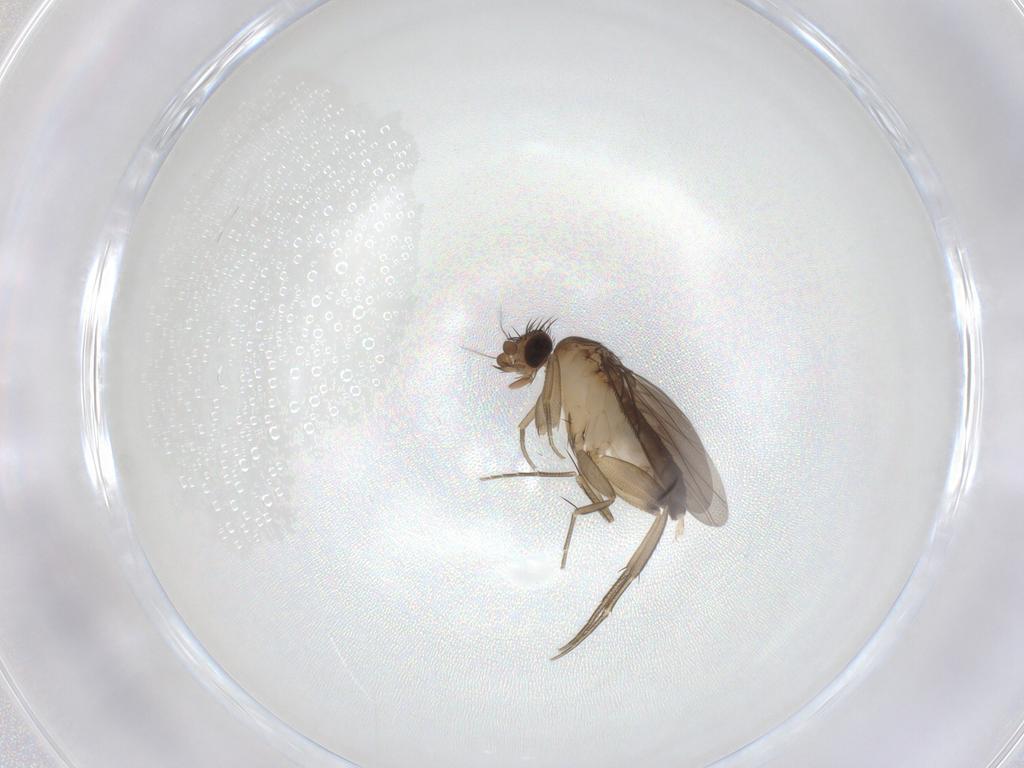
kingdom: Animalia
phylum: Arthropoda
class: Insecta
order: Diptera
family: Phoridae
